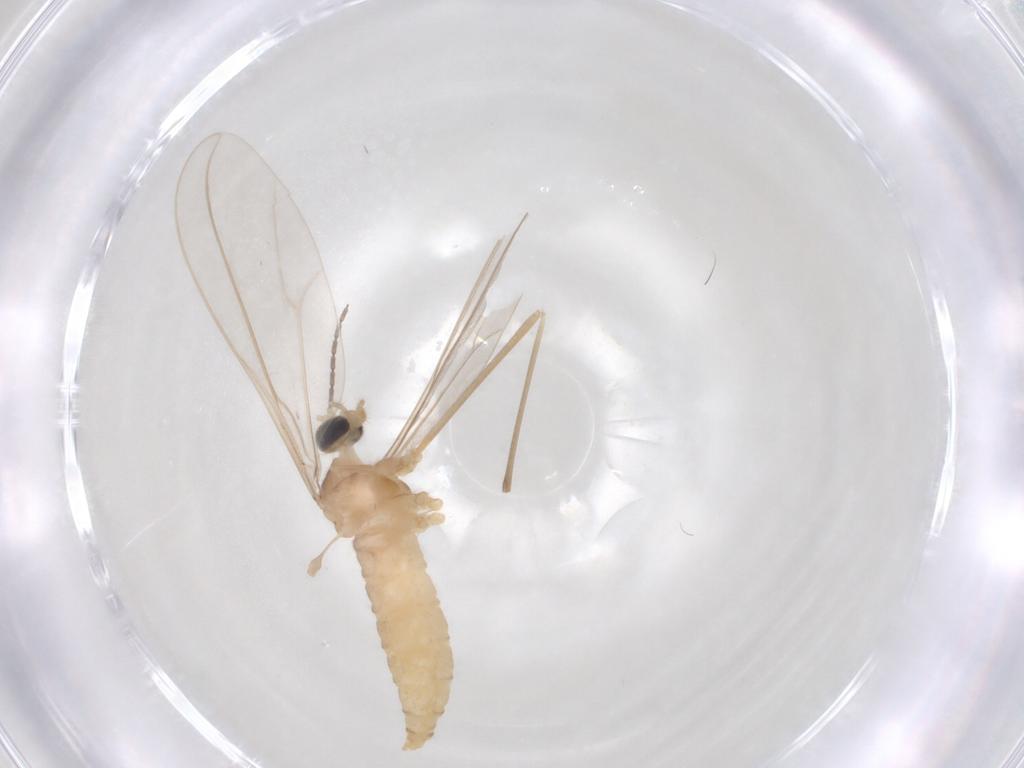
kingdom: Animalia
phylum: Arthropoda
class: Insecta
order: Diptera
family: Cecidomyiidae
